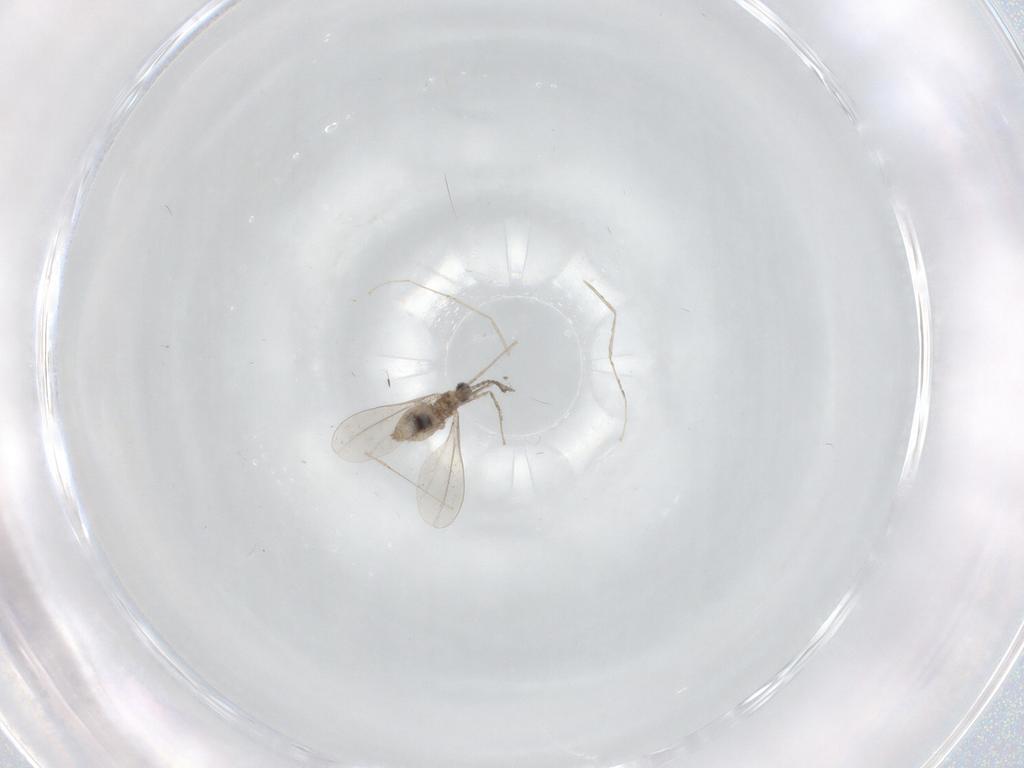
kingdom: Animalia
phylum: Arthropoda
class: Insecta
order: Diptera
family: Cecidomyiidae
